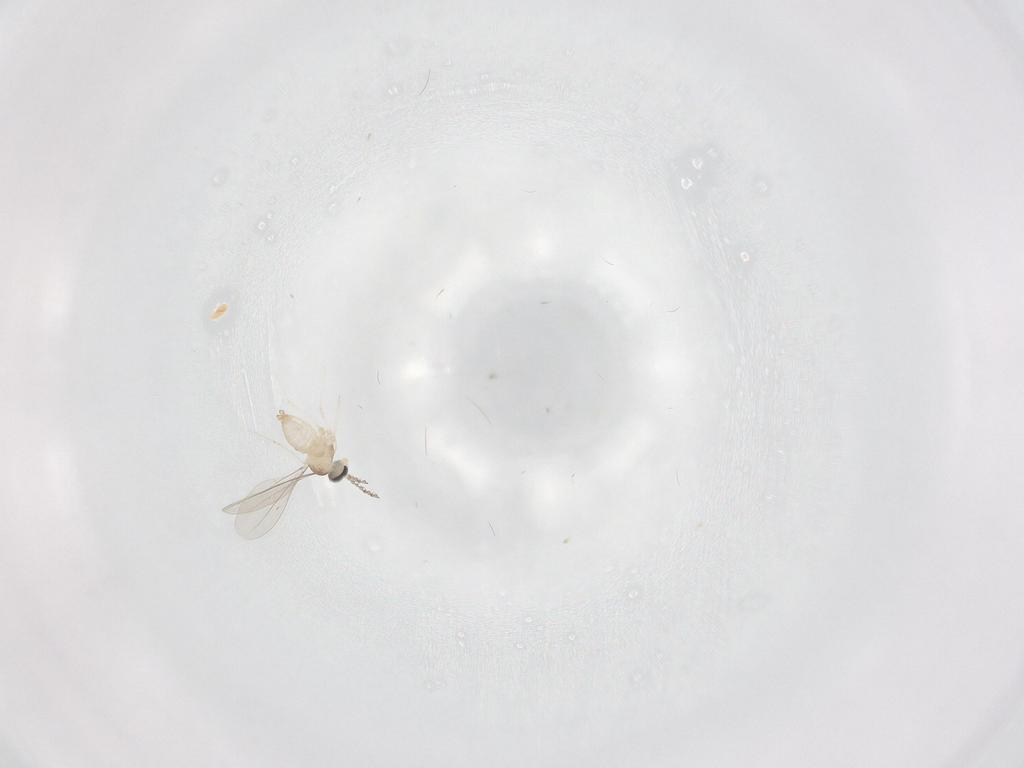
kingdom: Animalia
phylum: Arthropoda
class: Insecta
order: Diptera
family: Cecidomyiidae
